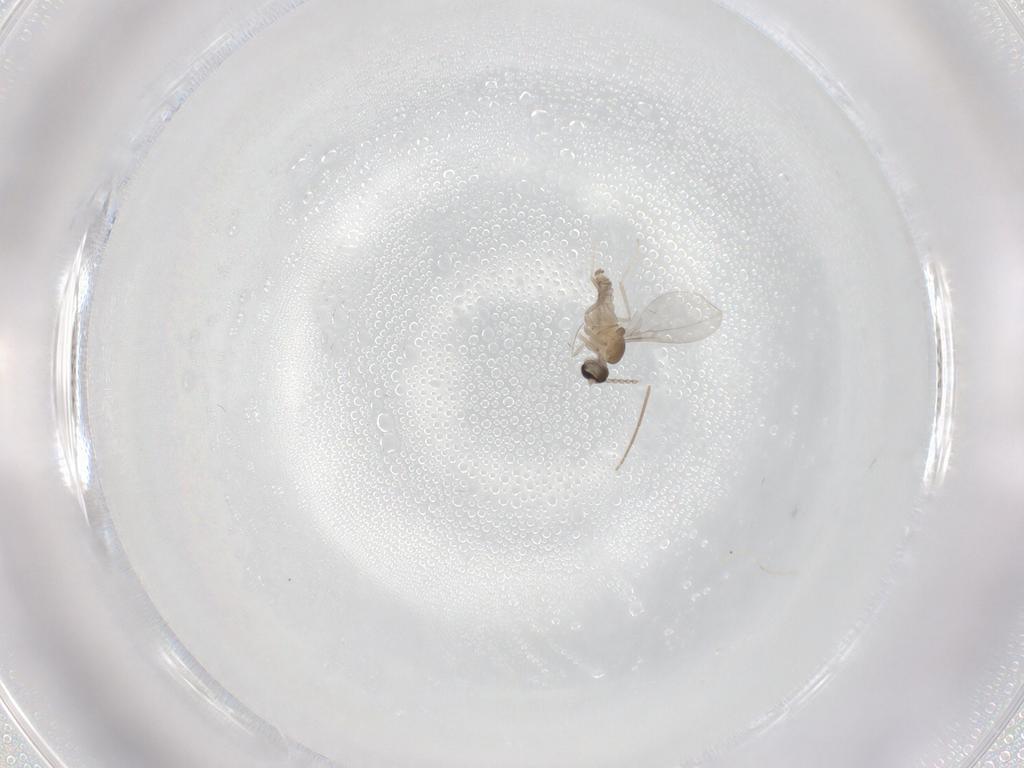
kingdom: Animalia
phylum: Arthropoda
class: Insecta
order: Diptera
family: Cecidomyiidae
